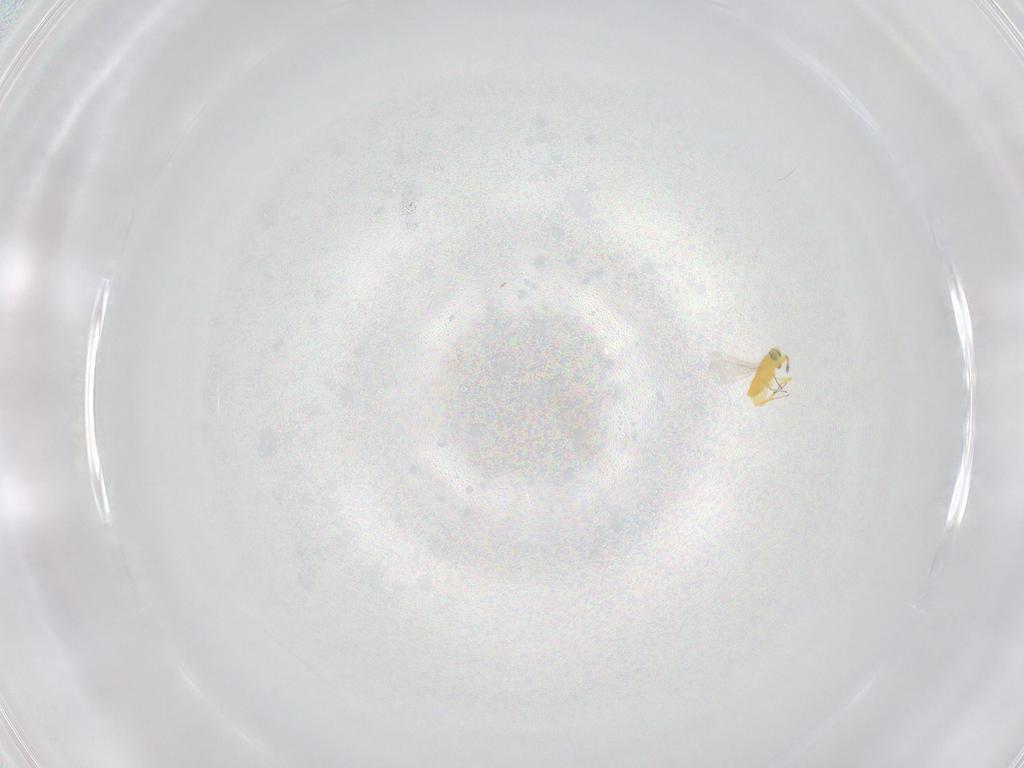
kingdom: Animalia
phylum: Arthropoda
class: Insecta
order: Hymenoptera
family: Aphelinidae
